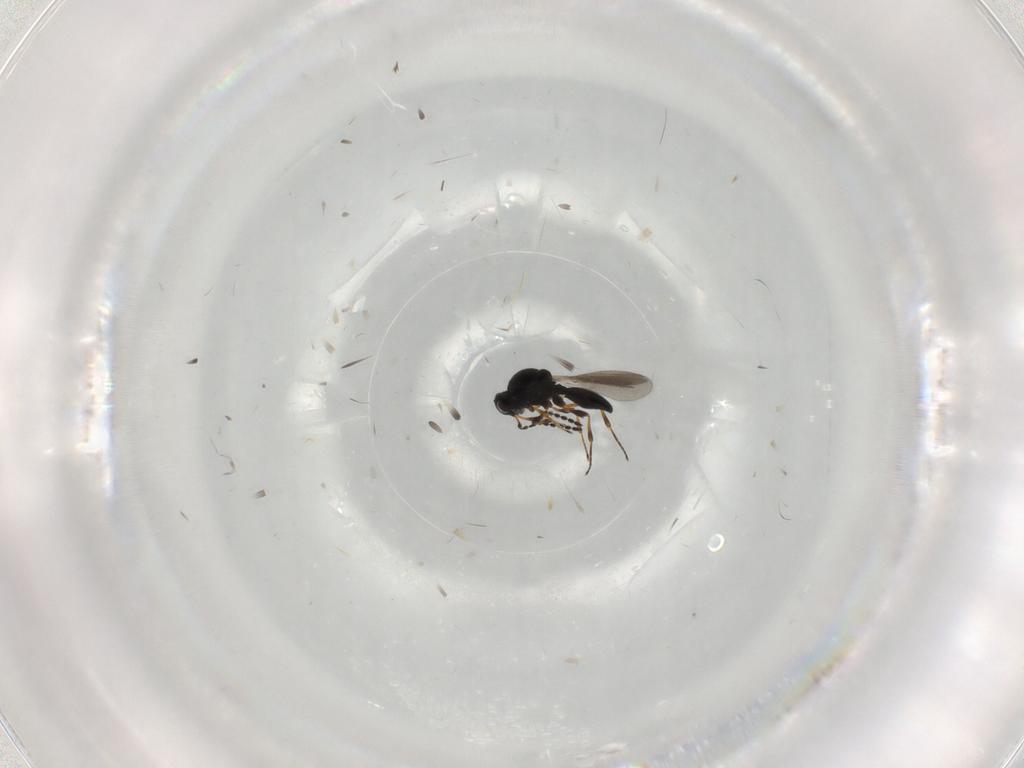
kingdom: Animalia
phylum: Arthropoda
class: Insecta
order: Hymenoptera
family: Platygastridae
